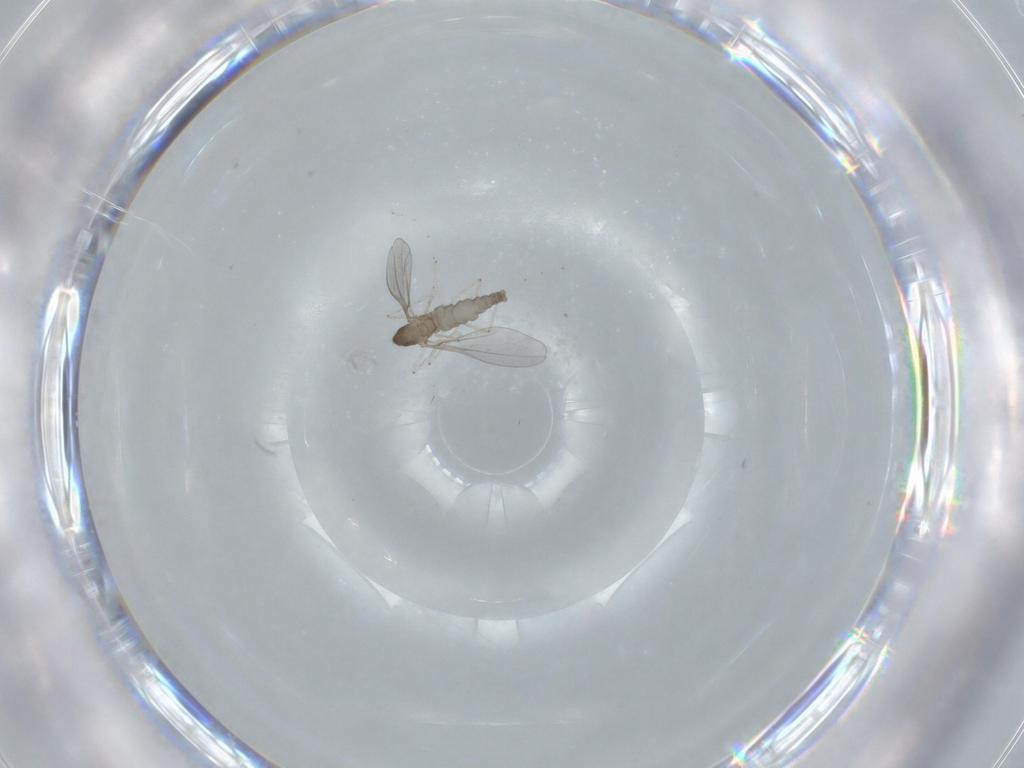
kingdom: Animalia
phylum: Arthropoda
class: Insecta
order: Diptera
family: Cecidomyiidae
